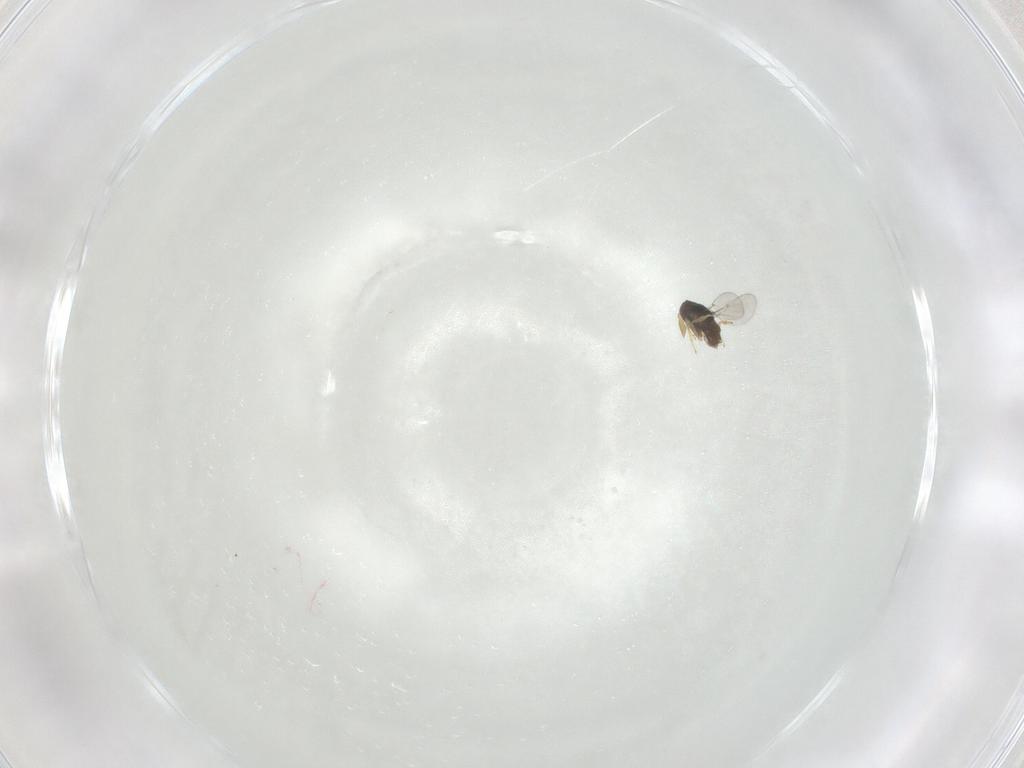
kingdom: Animalia
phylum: Arthropoda
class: Insecta
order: Hymenoptera
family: Encyrtidae
